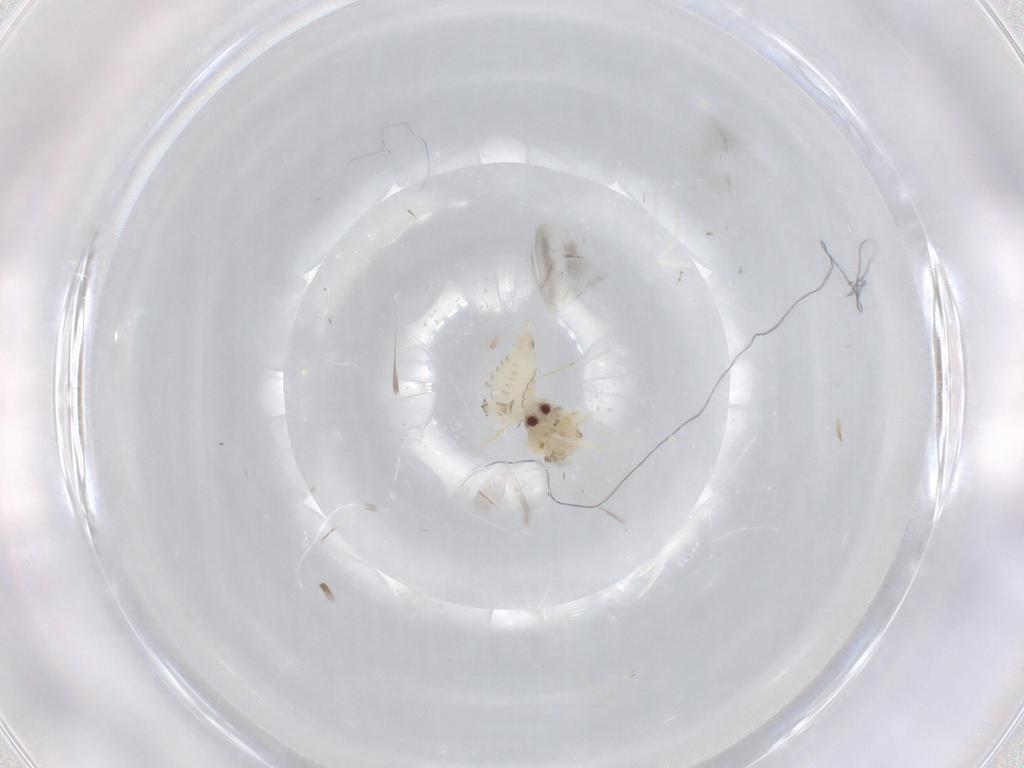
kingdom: Animalia
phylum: Arthropoda
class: Insecta
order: Hemiptera
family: Aleyrodidae
